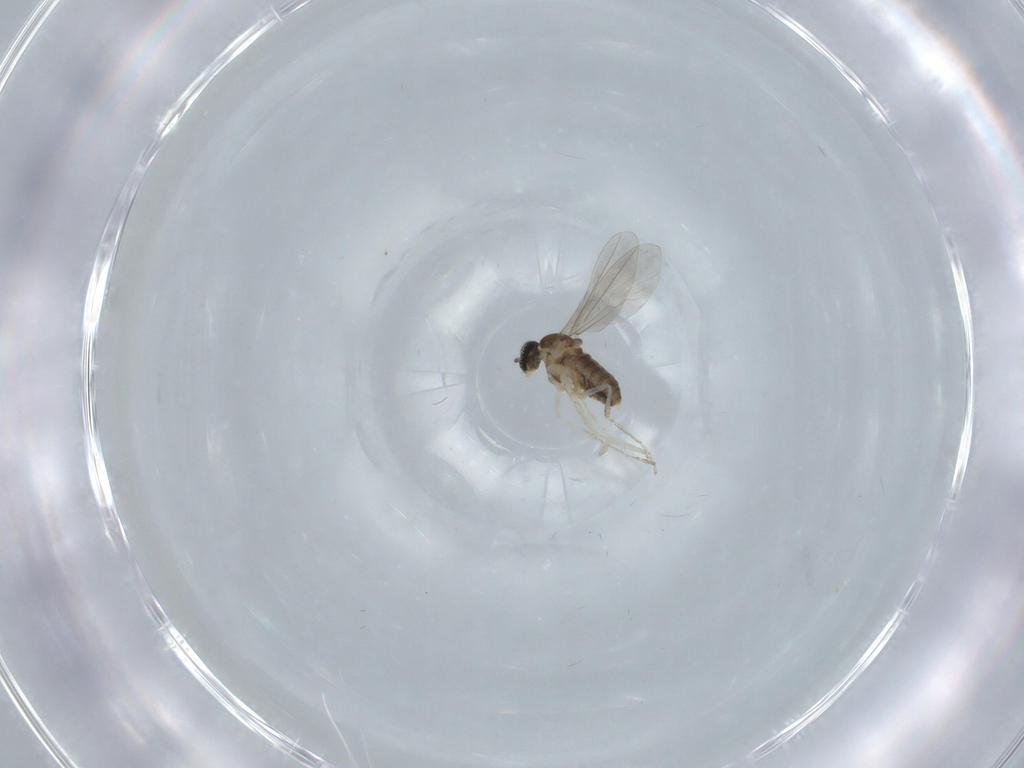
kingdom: Animalia
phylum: Arthropoda
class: Insecta
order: Diptera
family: Cecidomyiidae
